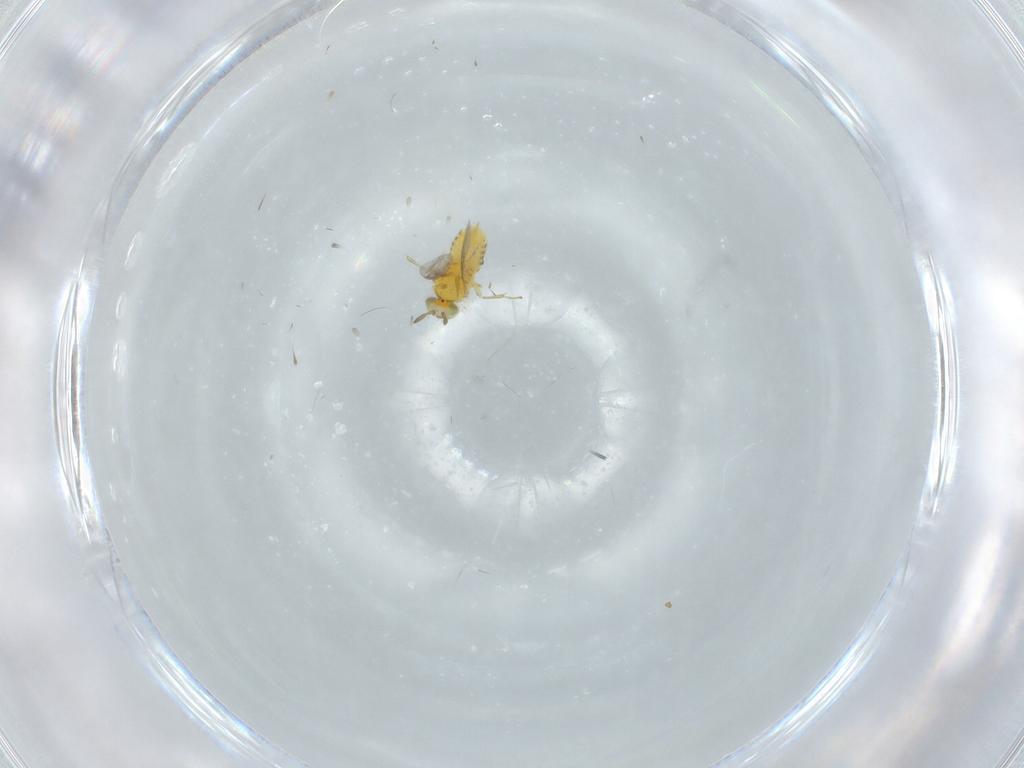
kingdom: Animalia
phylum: Arthropoda
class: Insecta
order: Hymenoptera
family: Aphelinidae
